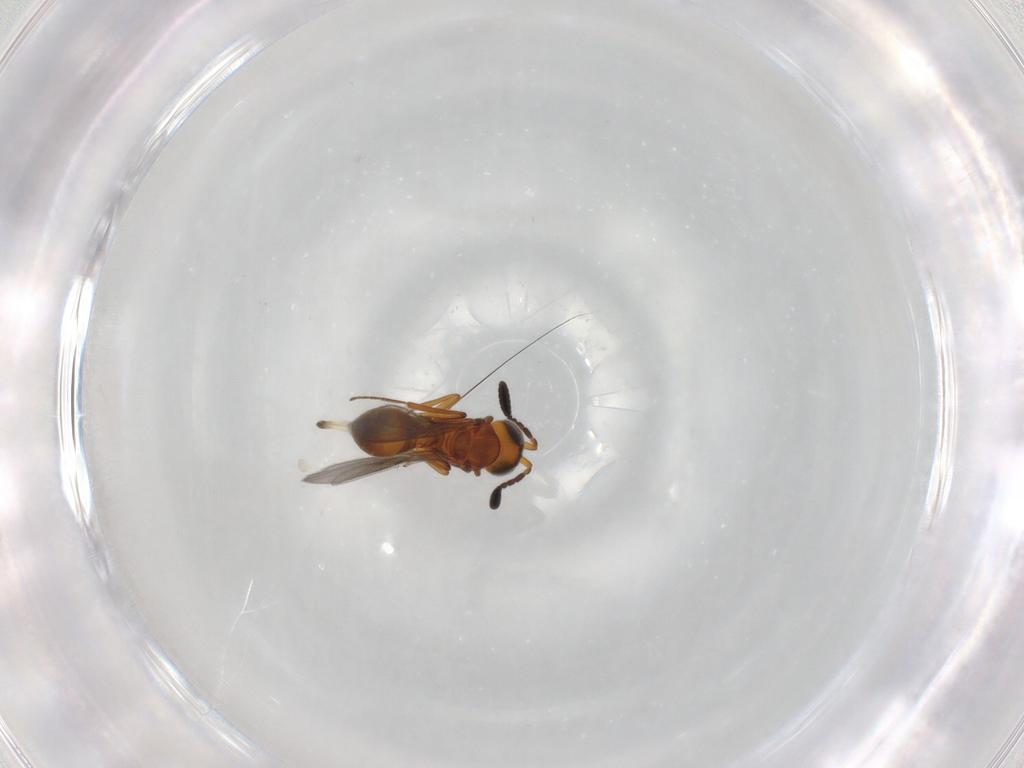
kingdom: Animalia
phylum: Arthropoda
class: Insecta
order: Hymenoptera
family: Scelionidae
